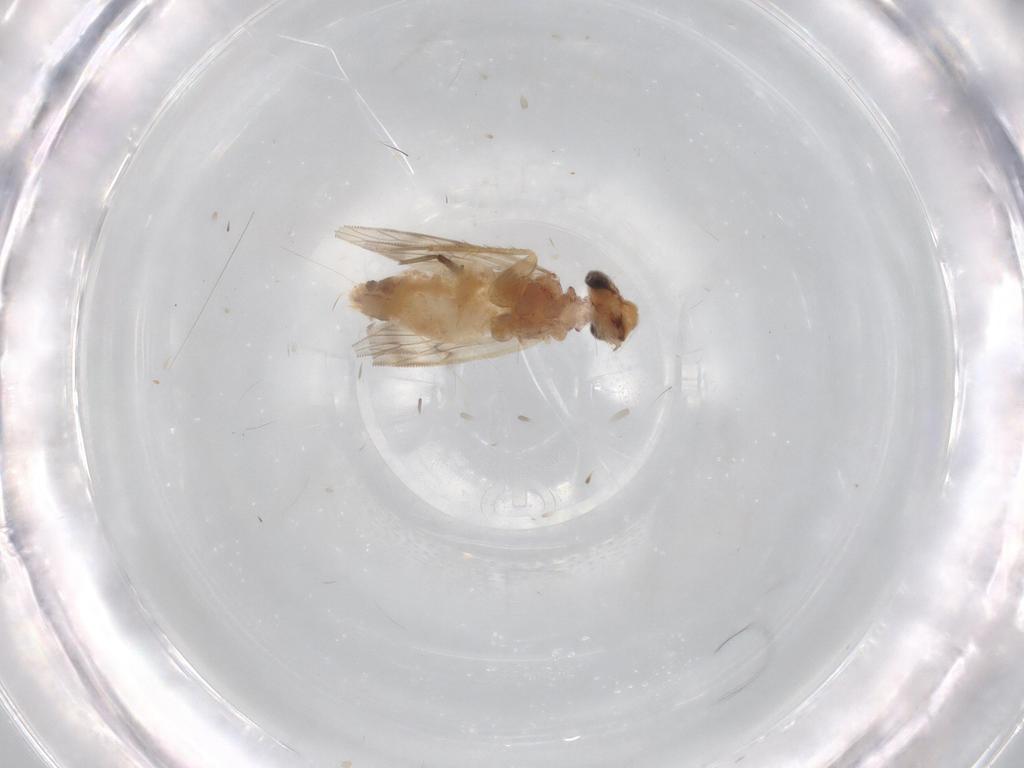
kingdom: Animalia
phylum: Arthropoda
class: Insecta
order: Psocodea
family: Lepidopsocidae
